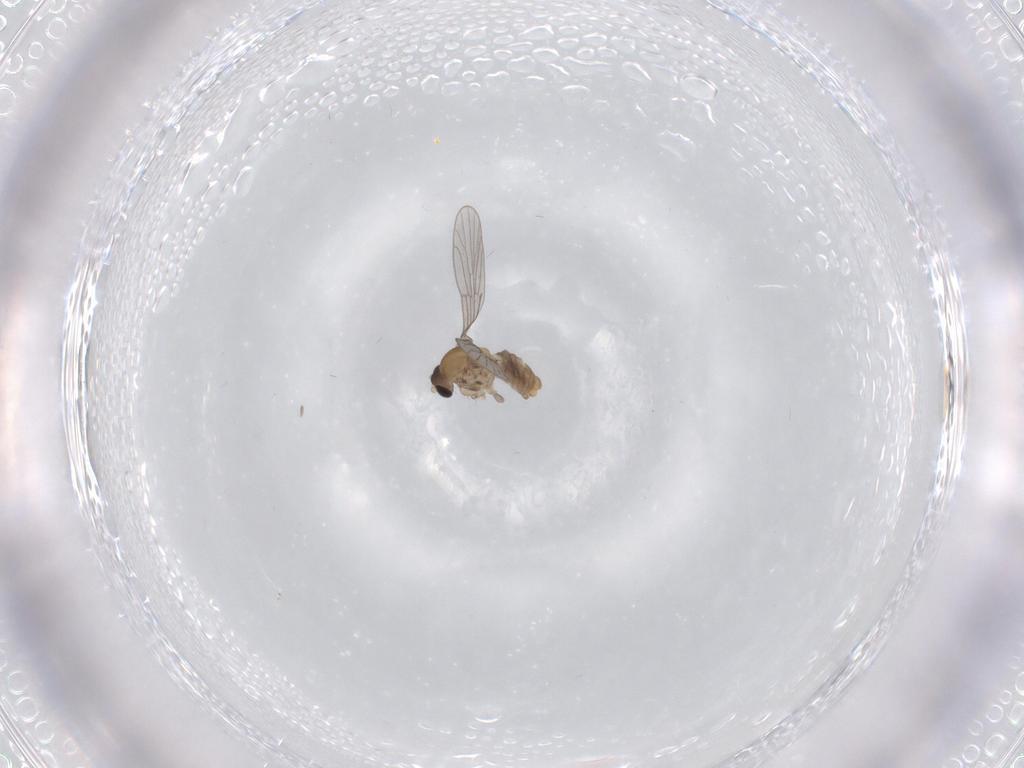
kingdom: Animalia
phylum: Arthropoda
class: Insecta
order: Diptera
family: Psychodidae
